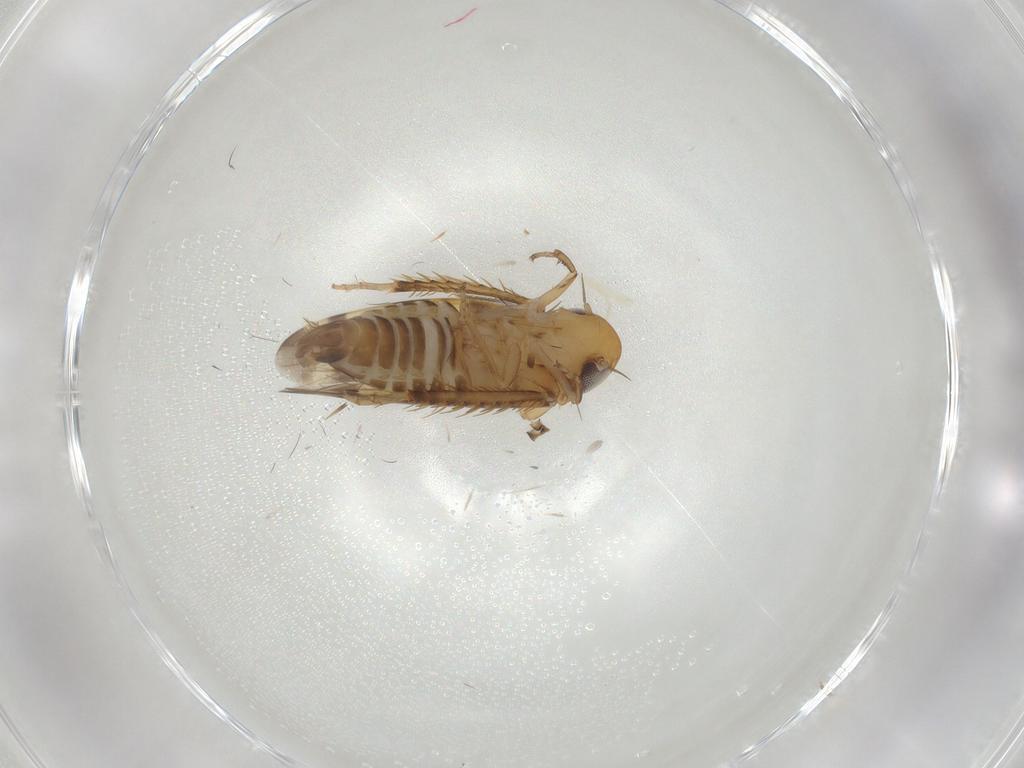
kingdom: Animalia
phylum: Arthropoda
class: Insecta
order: Hemiptera
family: Cicadellidae
